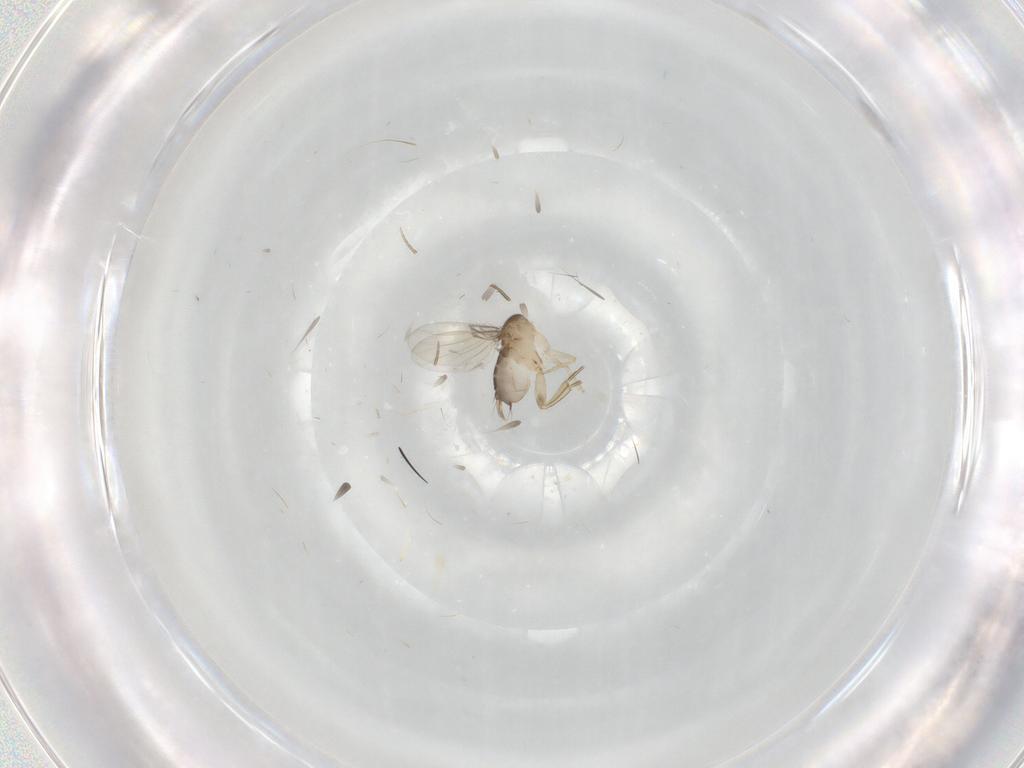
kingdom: Animalia
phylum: Arthropoda
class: Insecta
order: Diptera
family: Phoridae
